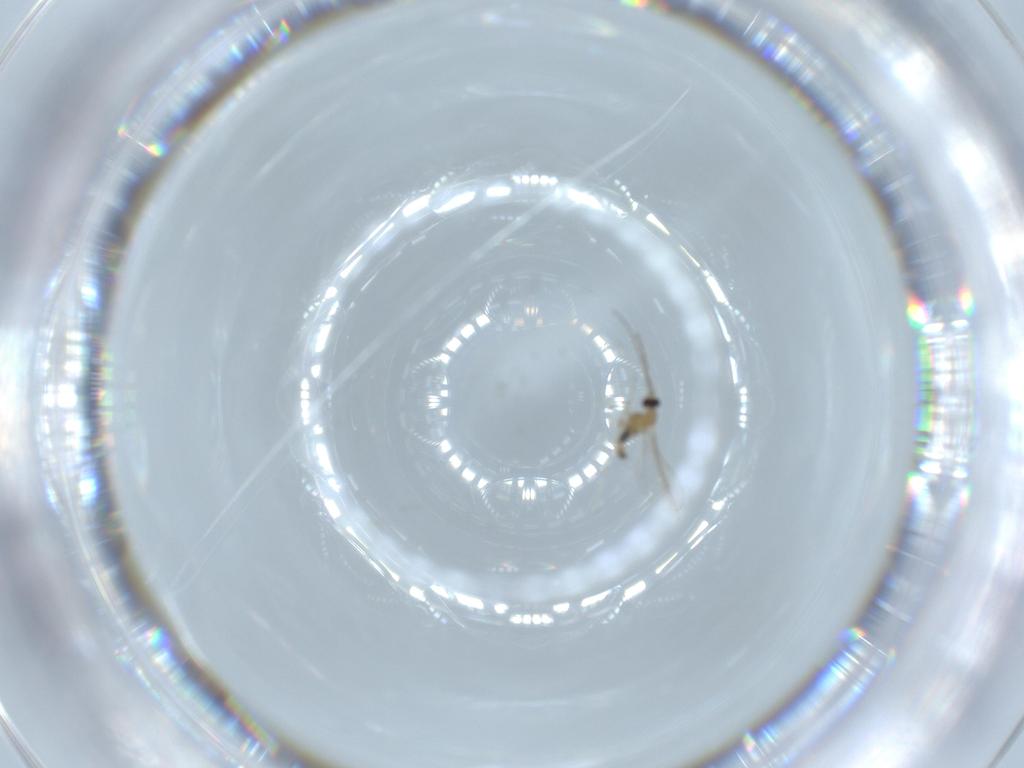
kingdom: Animalia
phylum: Arthropoda
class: Insecta
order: Diptera
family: Cecidomyiidae
